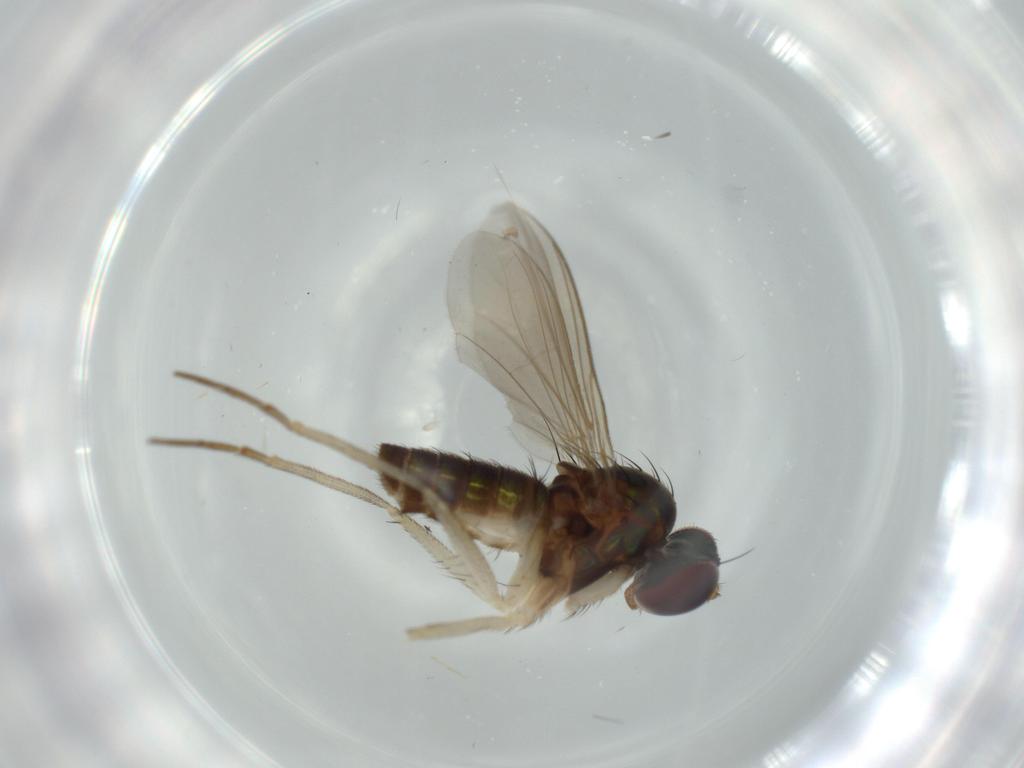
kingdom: Animalia
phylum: Arthropoda
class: Insecta
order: Diptera
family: Dolichopodidae
